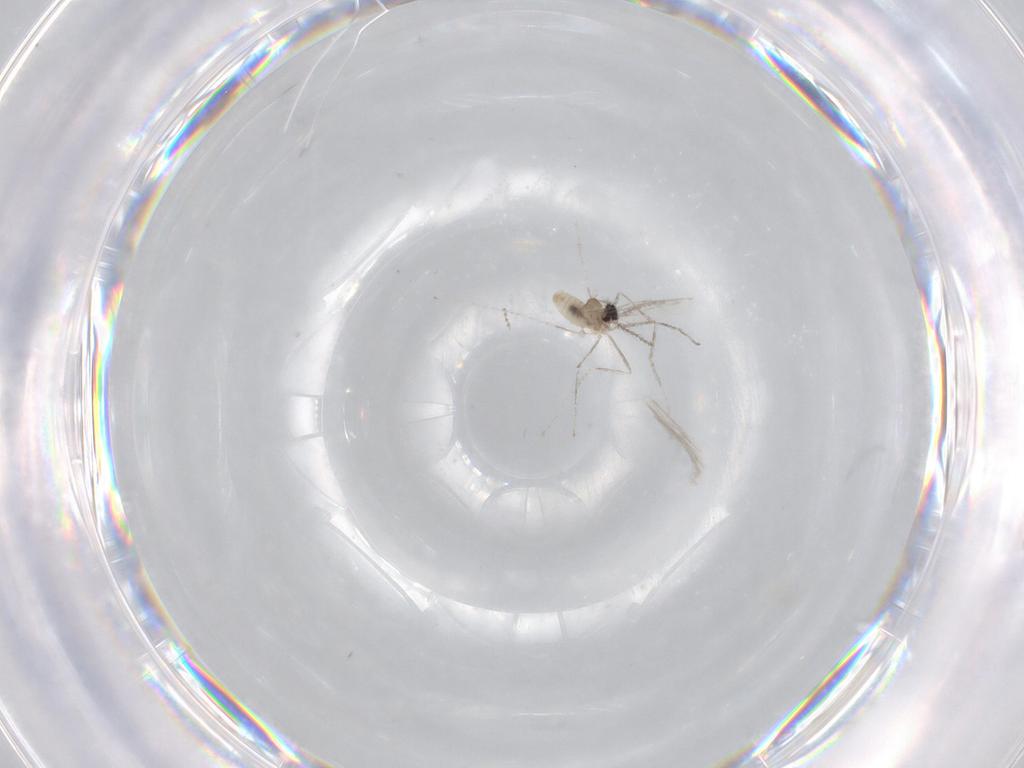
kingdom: Animalia
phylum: Arthropoda
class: Insecta
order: Diptera
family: Cecidomyiidae
